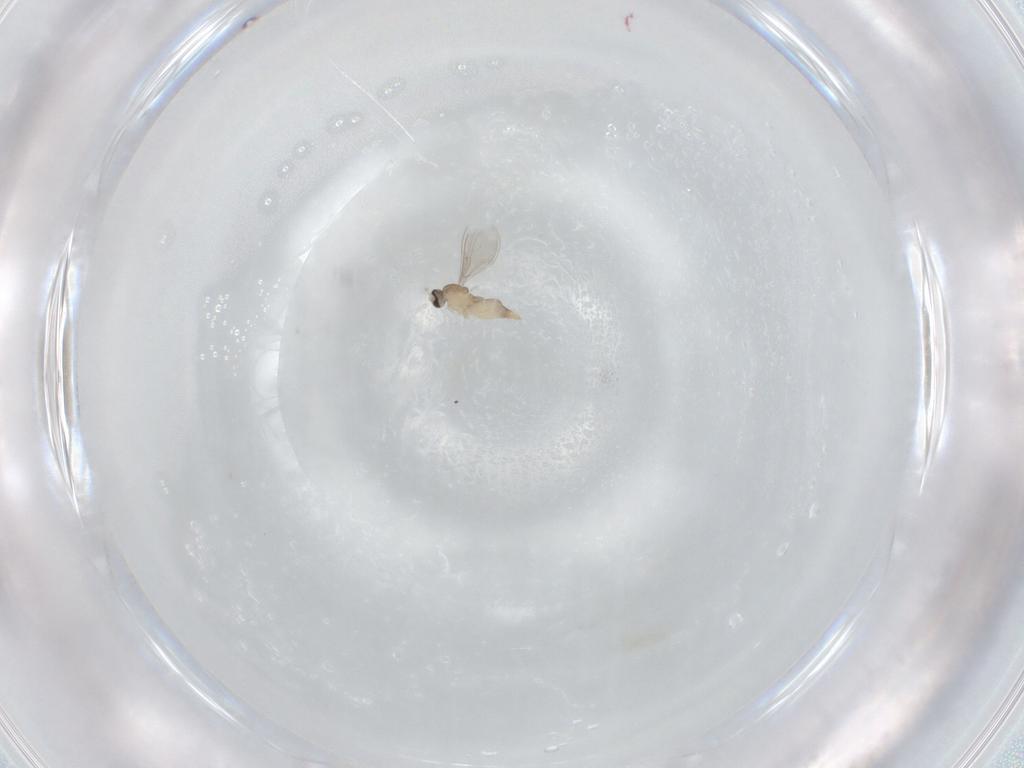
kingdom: Animalia
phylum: Arthropoda
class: Insecta
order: Diptera
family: Cecidomyiidae
